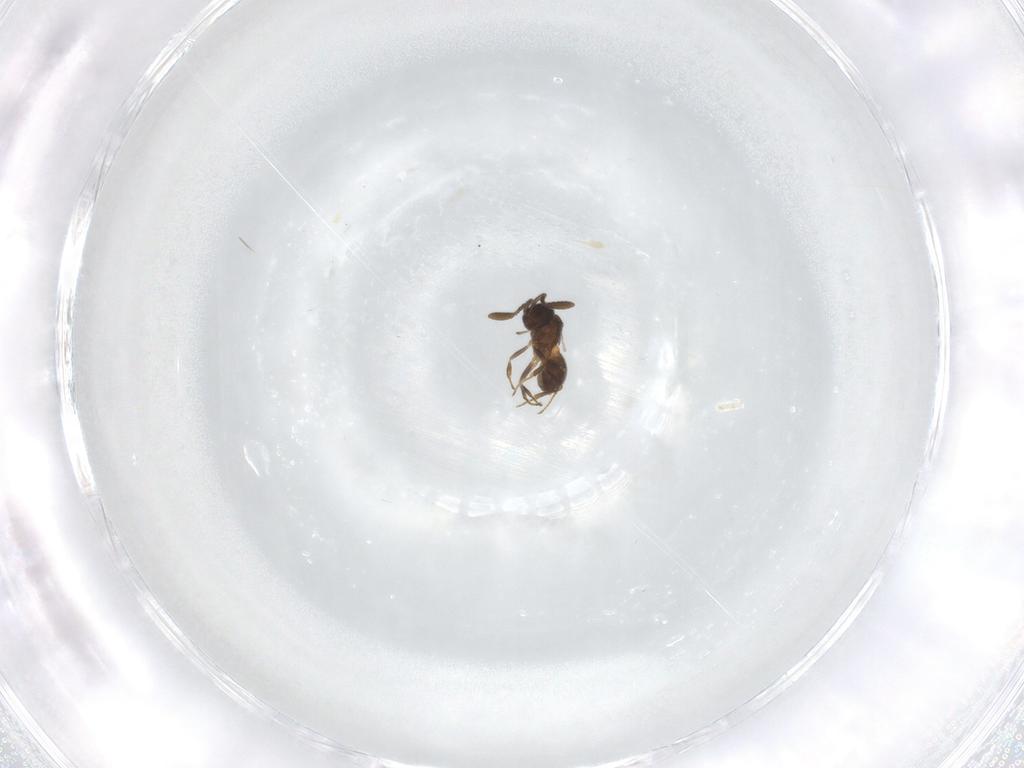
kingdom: Animalia
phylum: Arthropoda
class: Insecta
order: Hymenoptera
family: Scelionidae
